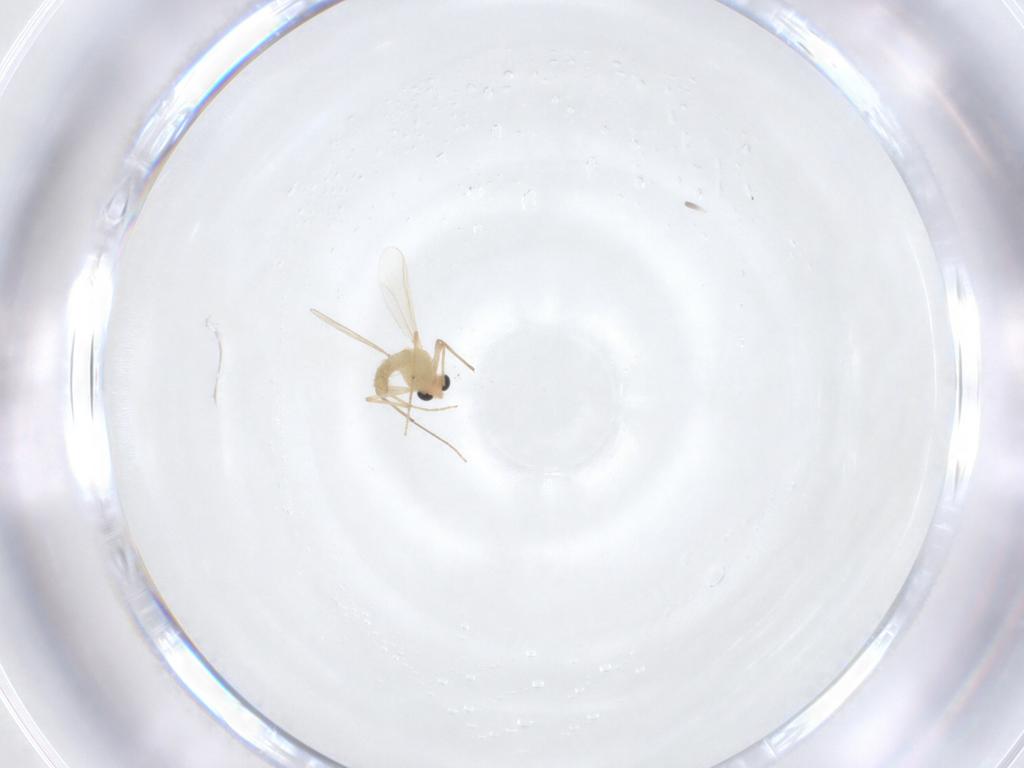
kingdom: Animalia
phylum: Arthropoda
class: Insecta
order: Diptera
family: Chironomidae
